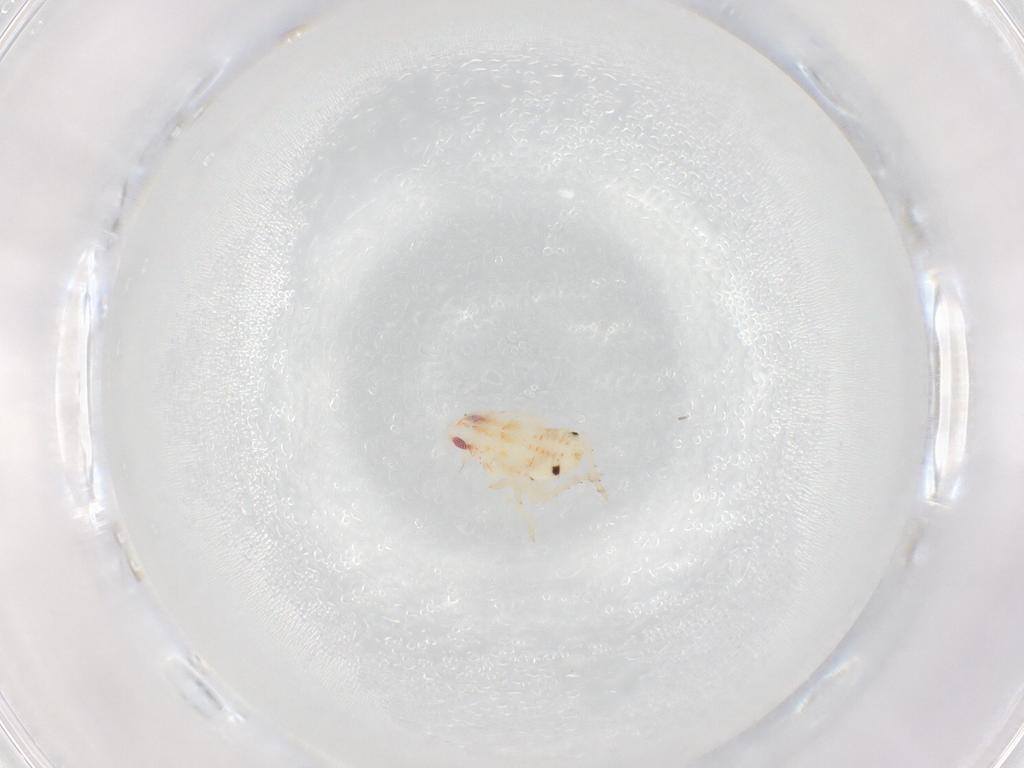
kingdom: Animalia
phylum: Arthropoda
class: Insecta
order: Hemiptera
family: Flatidae
